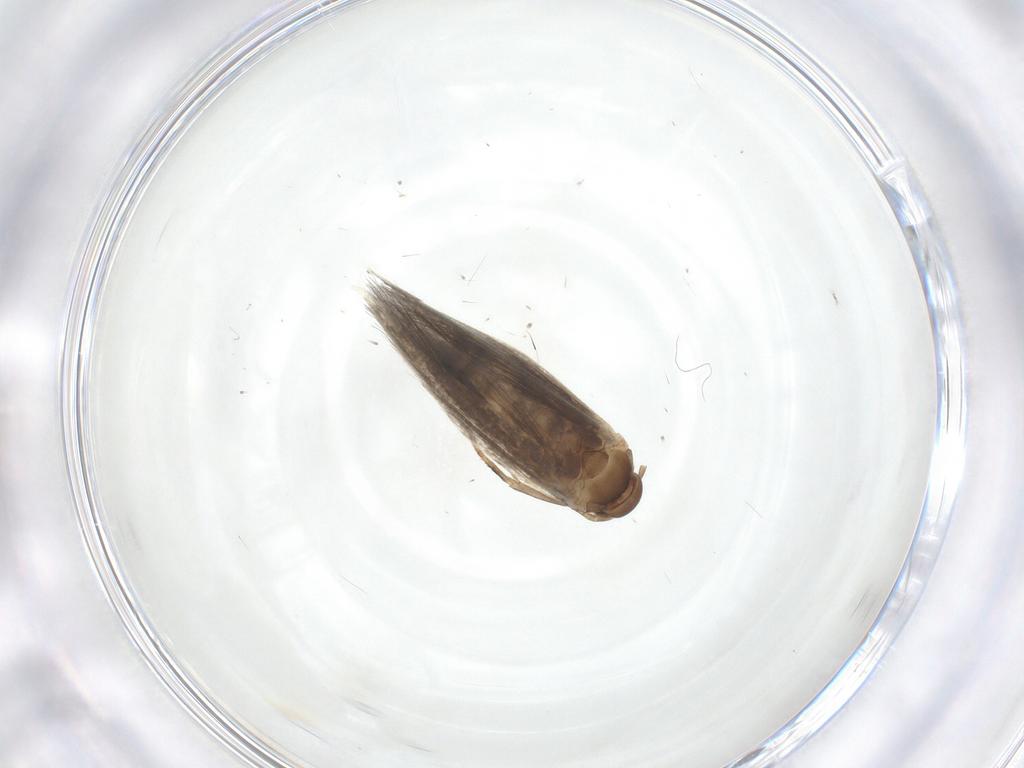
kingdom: Animalia
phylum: Arthropoda
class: Insecta
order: Lepidoptera
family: Elachistidae
